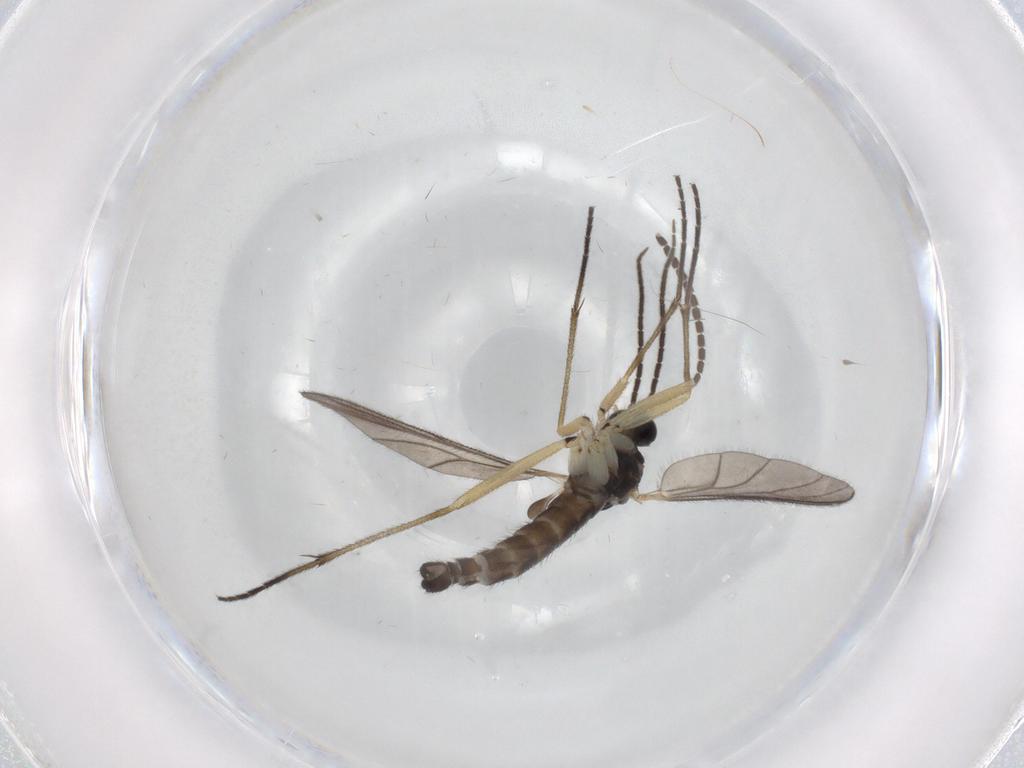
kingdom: Animalia
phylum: Arthropoda
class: Insecta
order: Diptera
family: Sciaridae
